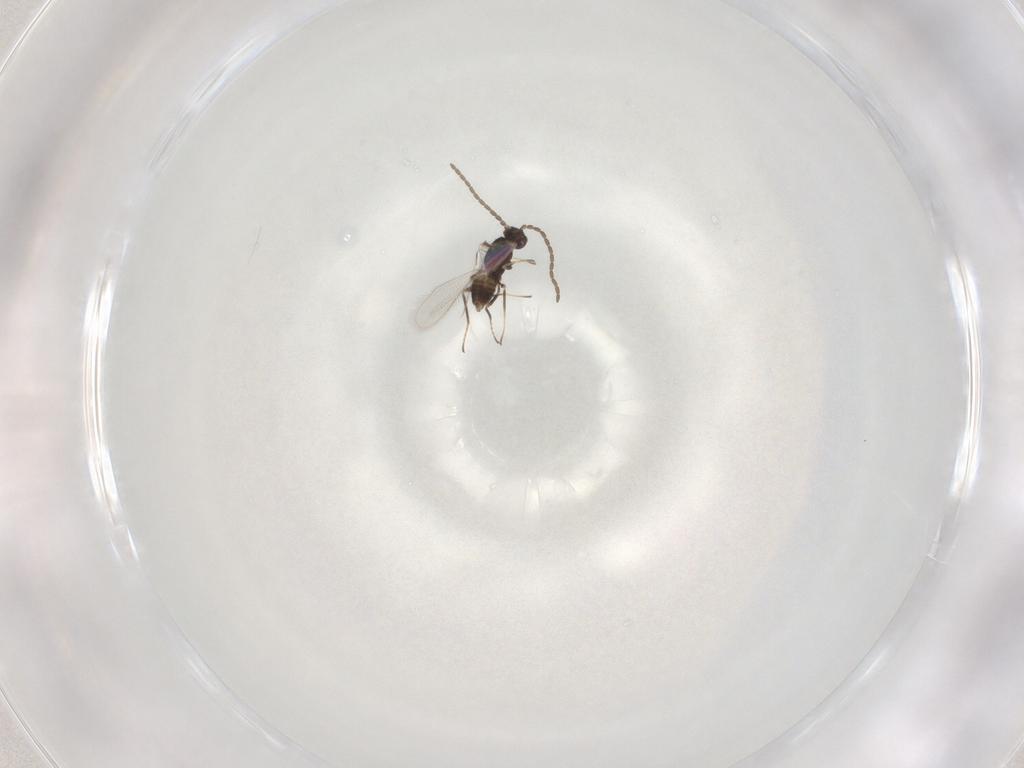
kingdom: Animalia
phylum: Arthropoda
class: Insecta
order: Hymenoptera
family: Mymaridae
